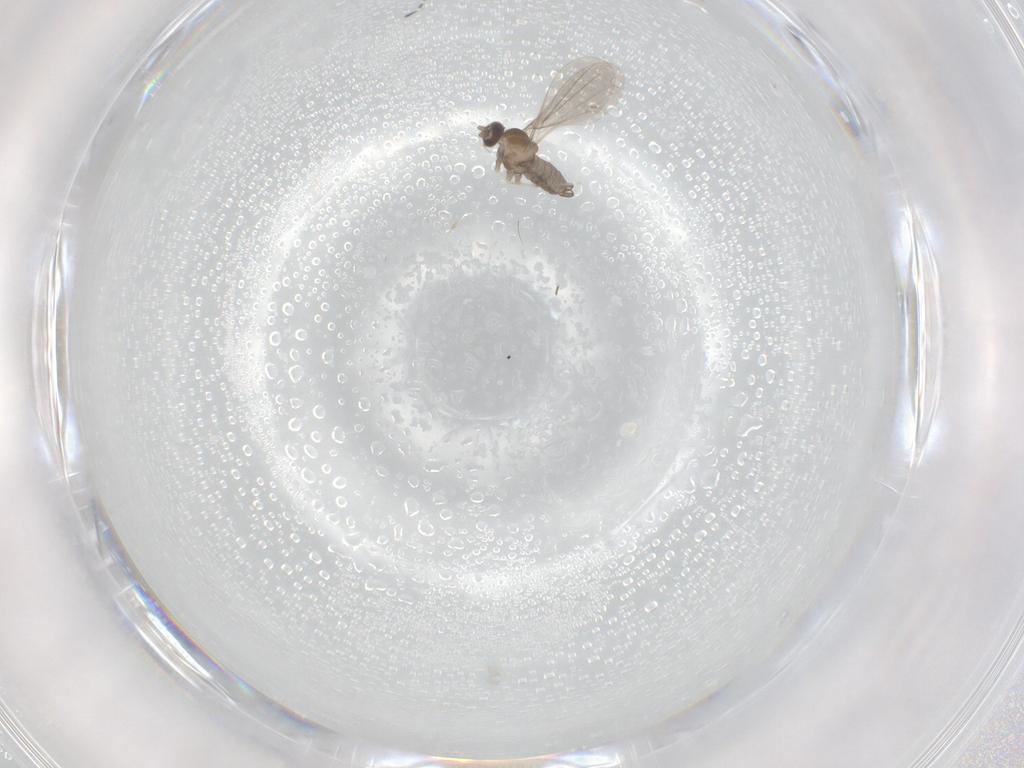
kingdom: Animalia
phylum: Arthropoda
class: Insecta
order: Diptera
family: Cecidomyiidae
